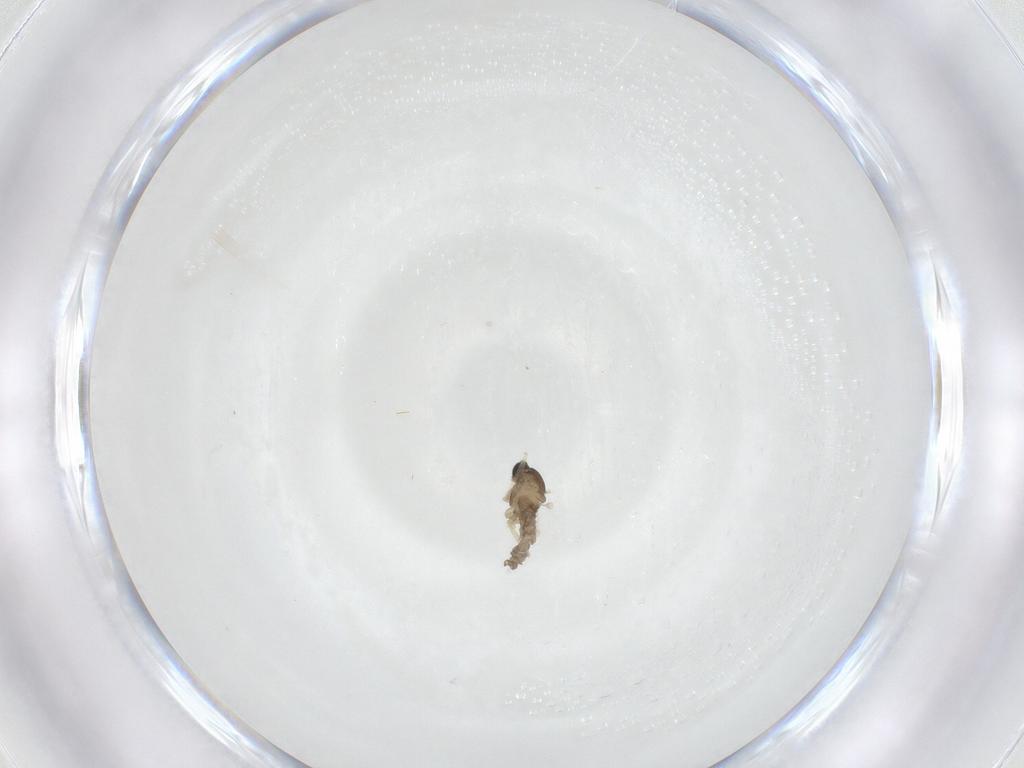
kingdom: Animalia
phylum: Arthropoda
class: Insecta
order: Diptera
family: Cecidomyiidae
